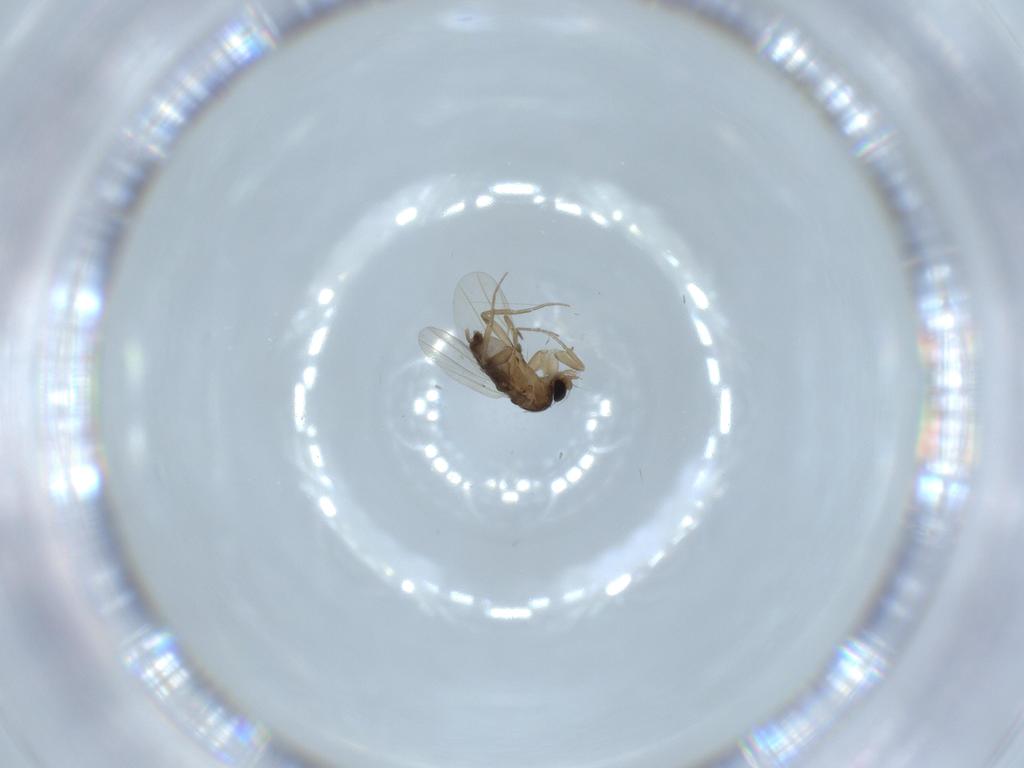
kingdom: Animalia
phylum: Arthropoda
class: Insecta
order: Diptera
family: Phoridae
